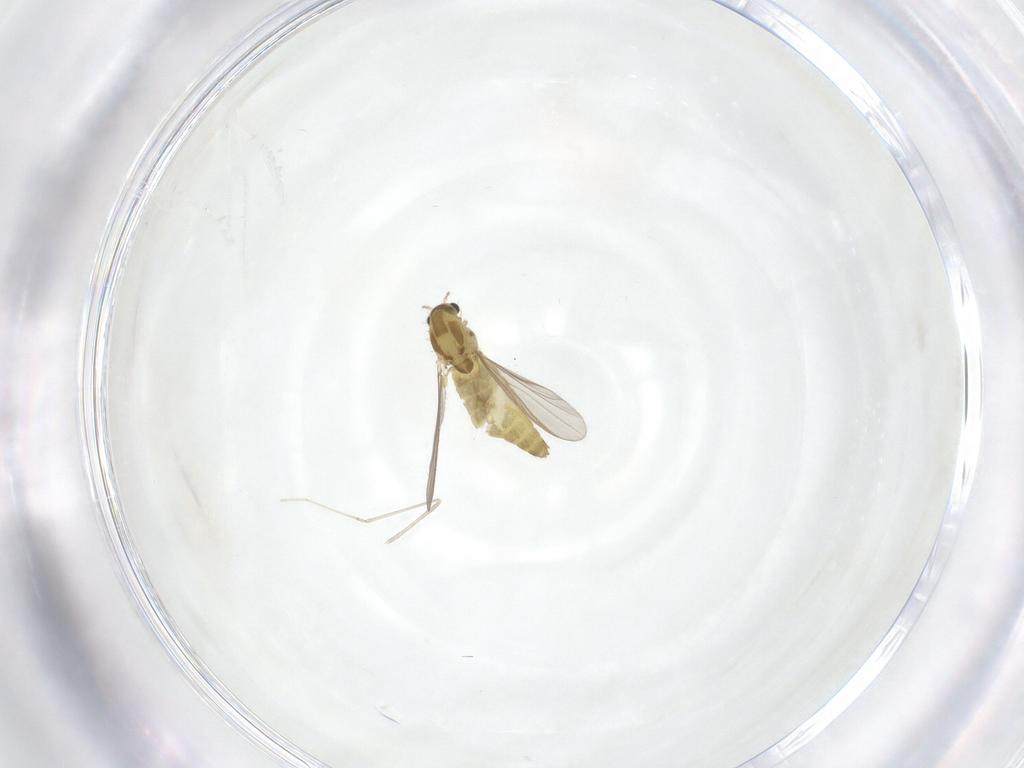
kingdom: Animalia
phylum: Arthropoda
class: Insecta
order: Diptera
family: Chironomidae
